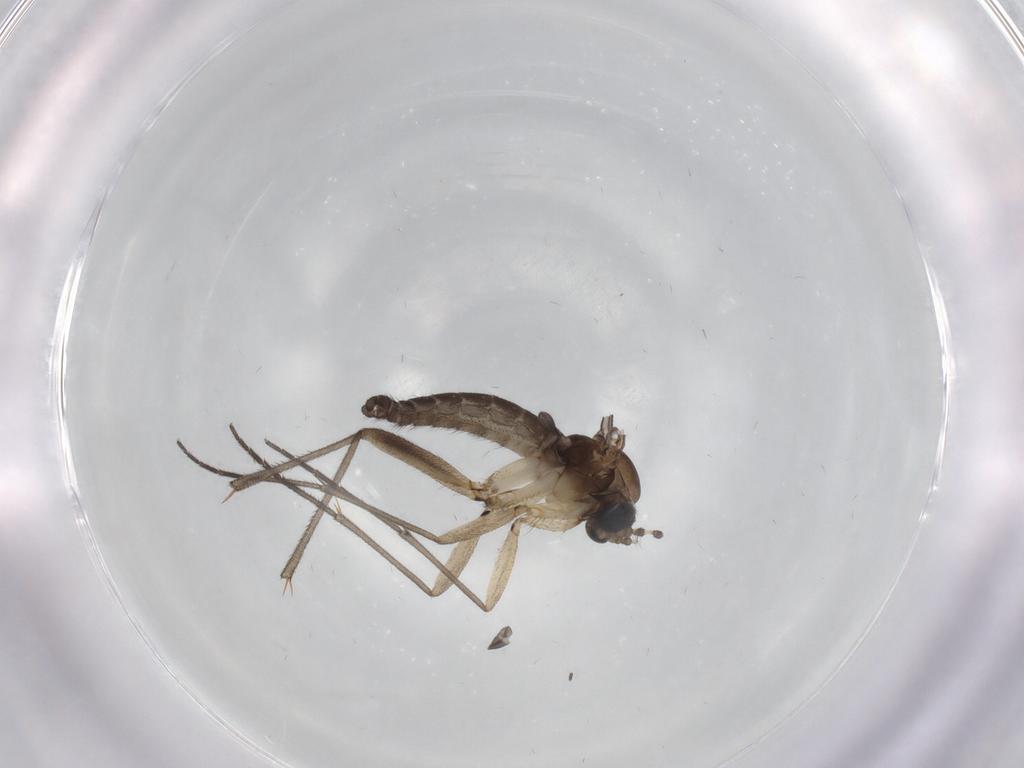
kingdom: Animalia
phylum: Arthropoda
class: Insecta
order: Diptera
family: Sciaridae
